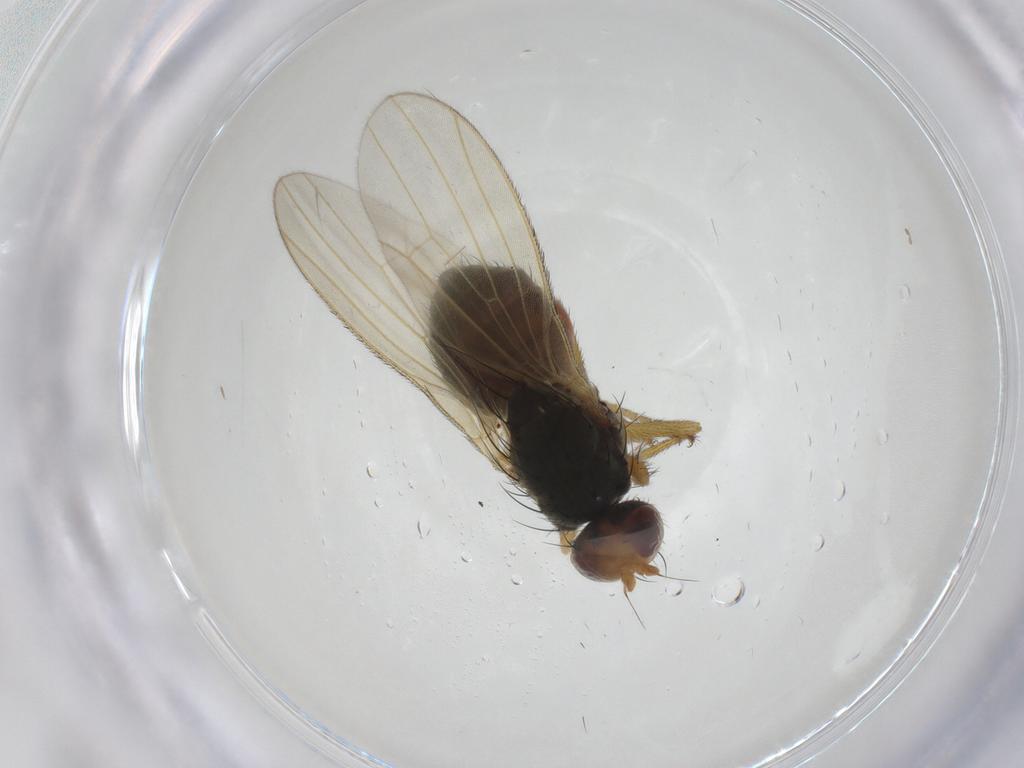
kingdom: Animalia
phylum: Arthropoda
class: Insecta
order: Diptera
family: Heleomyzidae
